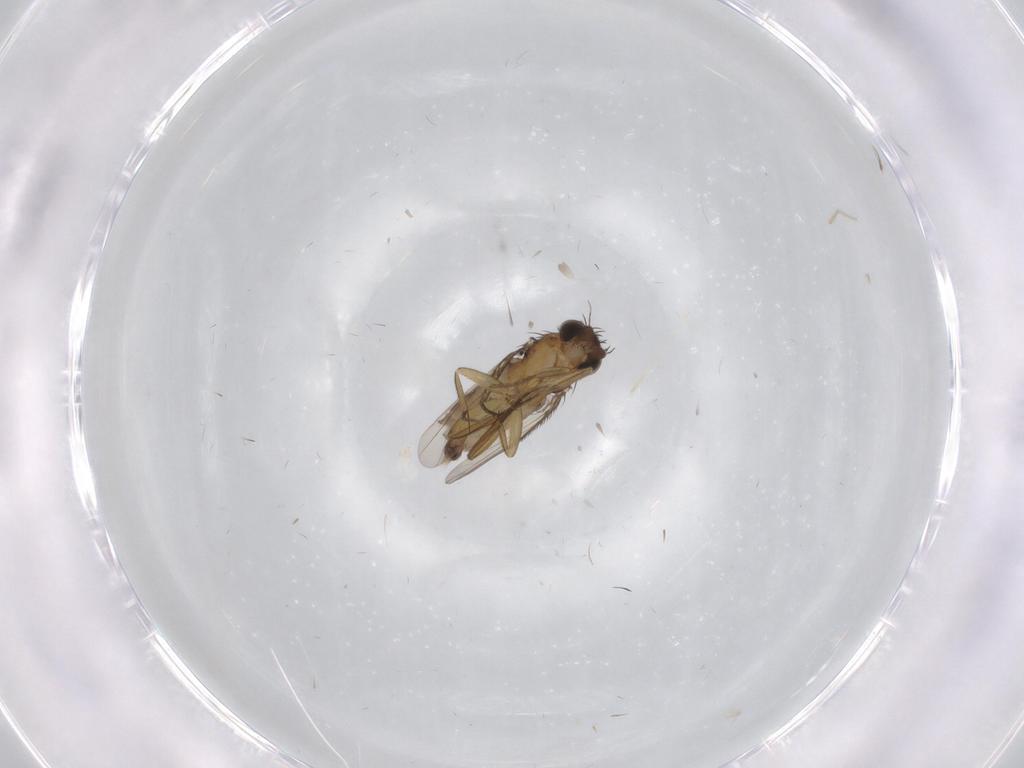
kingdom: Animalia
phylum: Arthropoda
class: Insecta
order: Diptera
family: Phoridae
